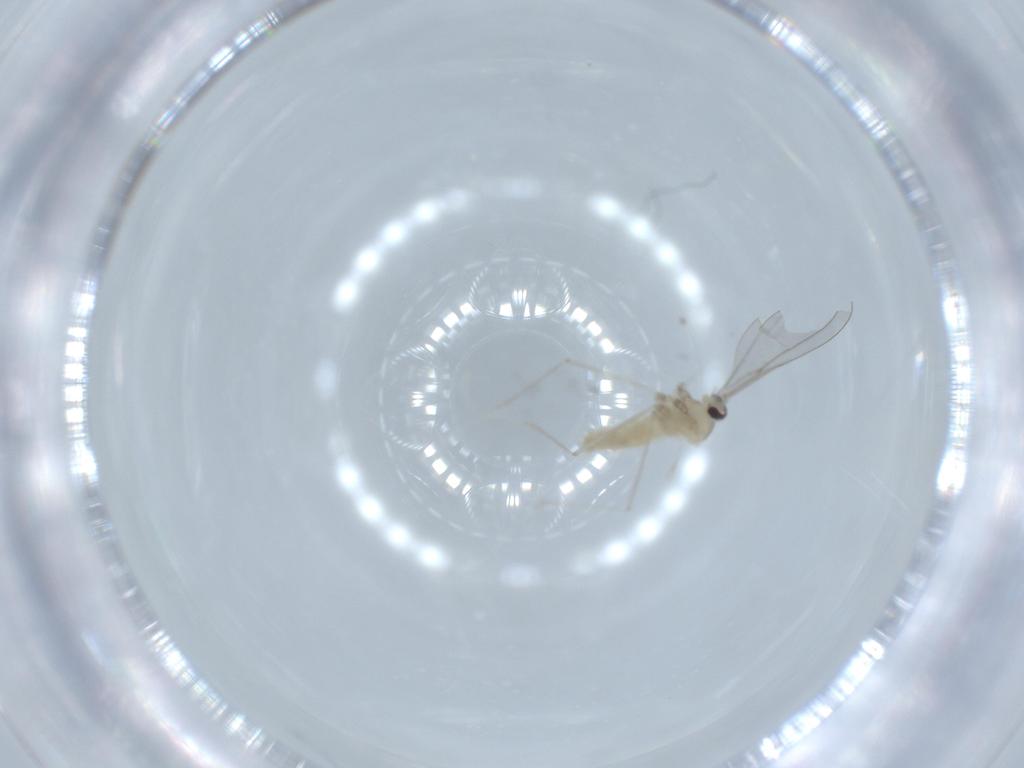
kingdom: Animalia
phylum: Arthropoda
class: Insecta
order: Diptera
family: Cecidomyiidae
